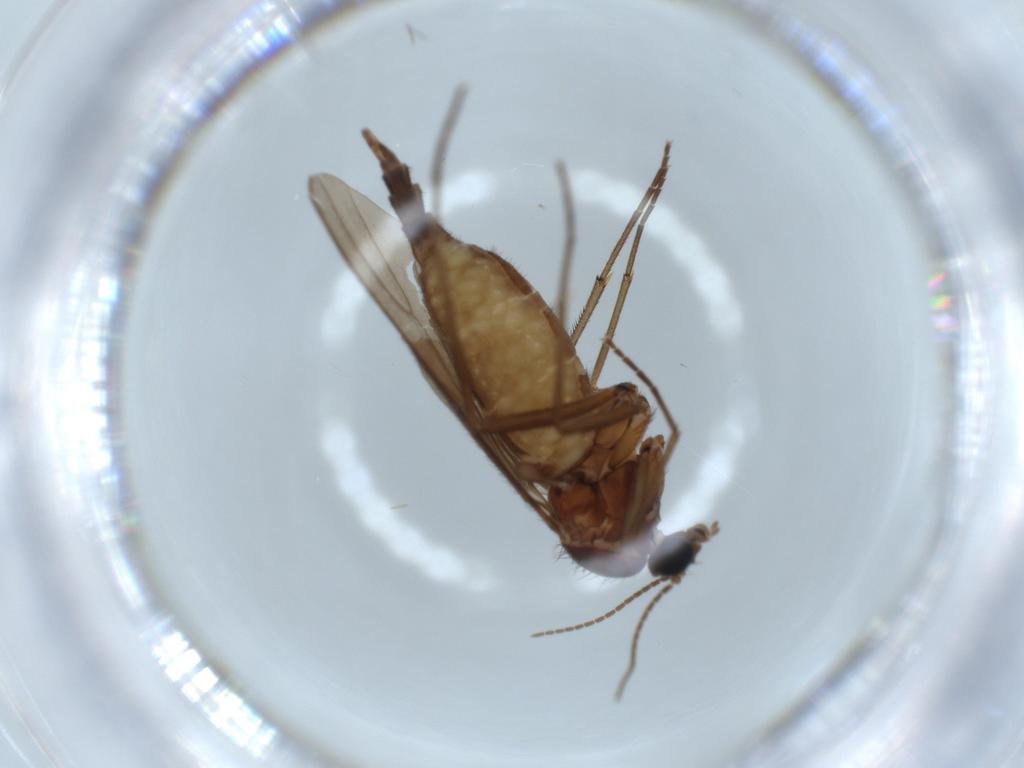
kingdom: Animalia
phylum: Arthropoda
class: Insecta
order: Diptera
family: Sciaridae
